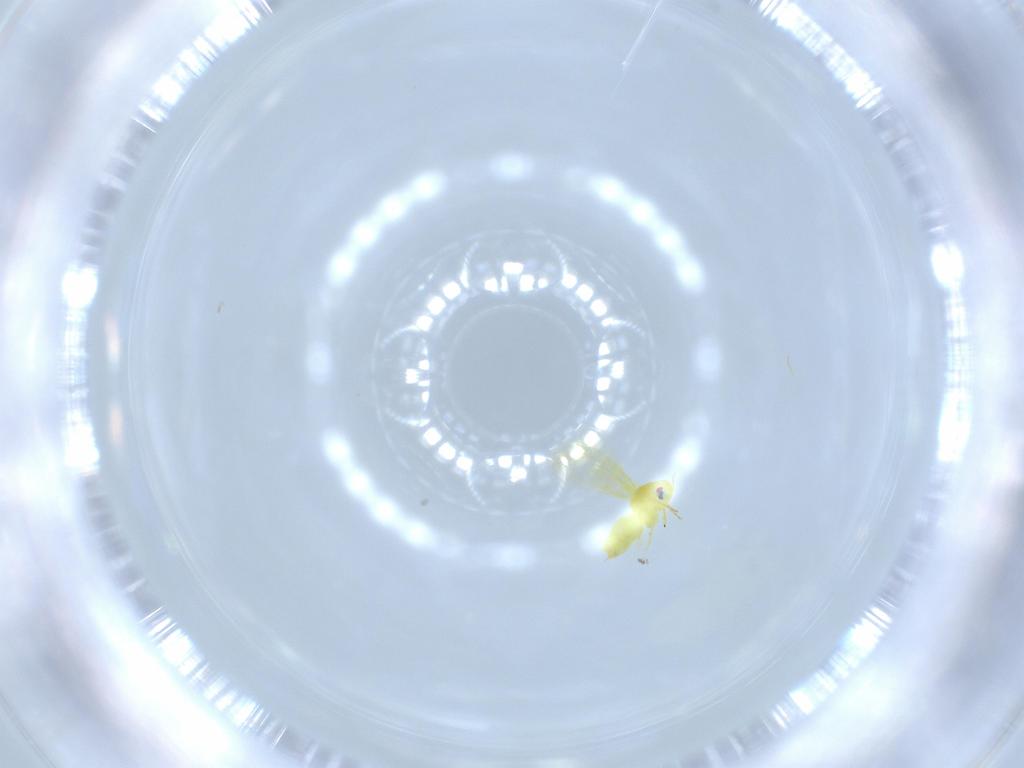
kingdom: Animalia
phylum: Arthropoda
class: Insecta
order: Hemiptera
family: Aleyrodidae
